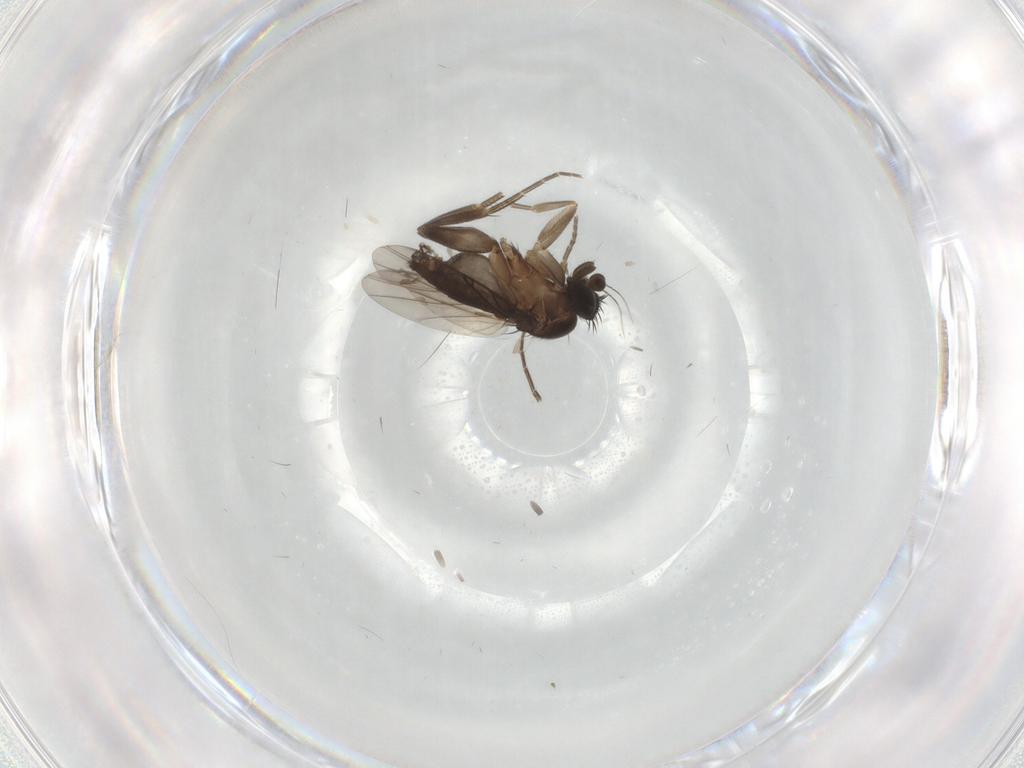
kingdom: Animalia
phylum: Arthropoda
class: Insecta
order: Diptera
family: Phoridae
